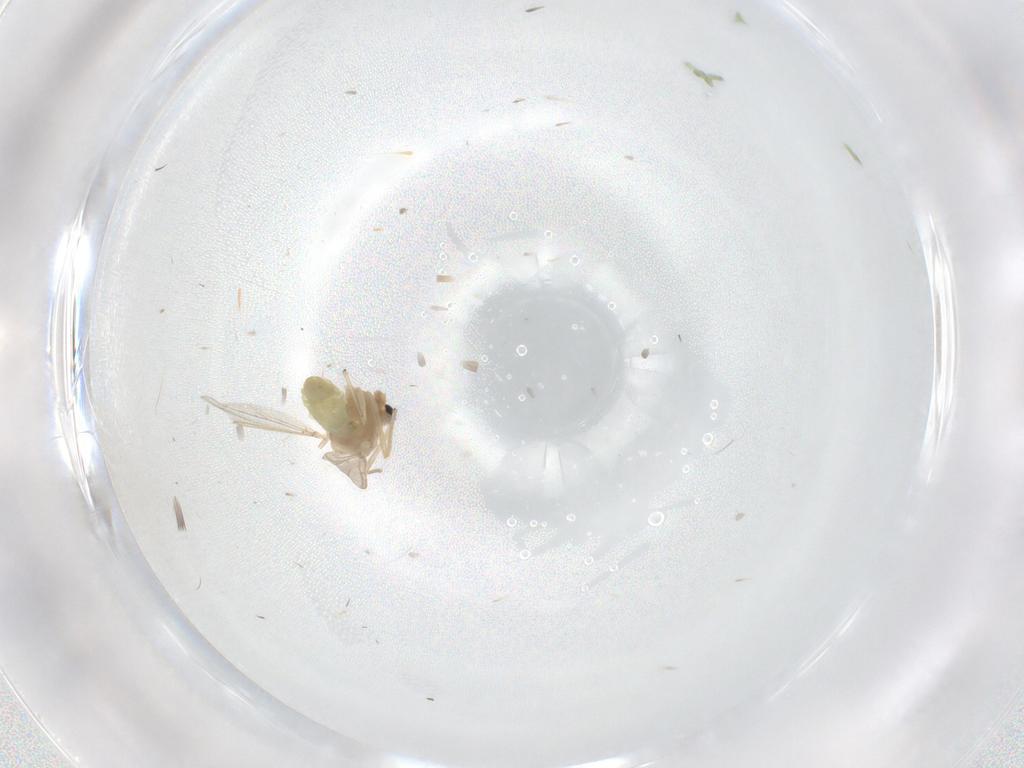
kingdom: Animalia
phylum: Arthropoda
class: Insecta
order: Diptera
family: Chironomidae
